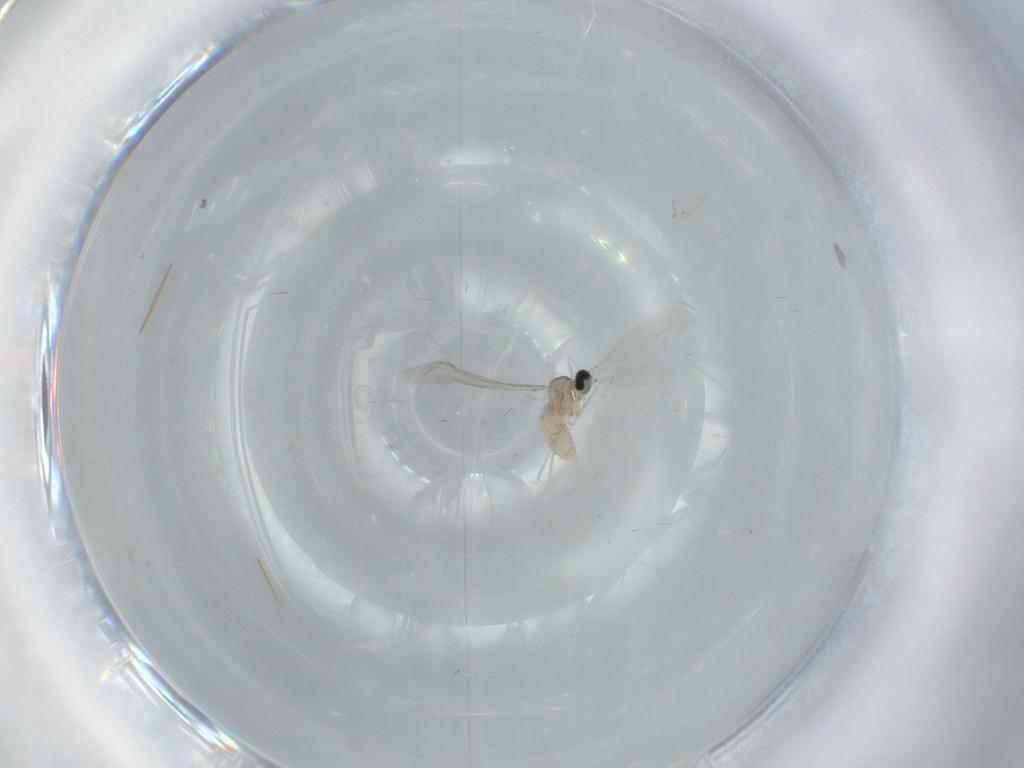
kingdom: Animalia
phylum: Arthropoda
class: Insecta
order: Diptera
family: Cecidomyiidae
